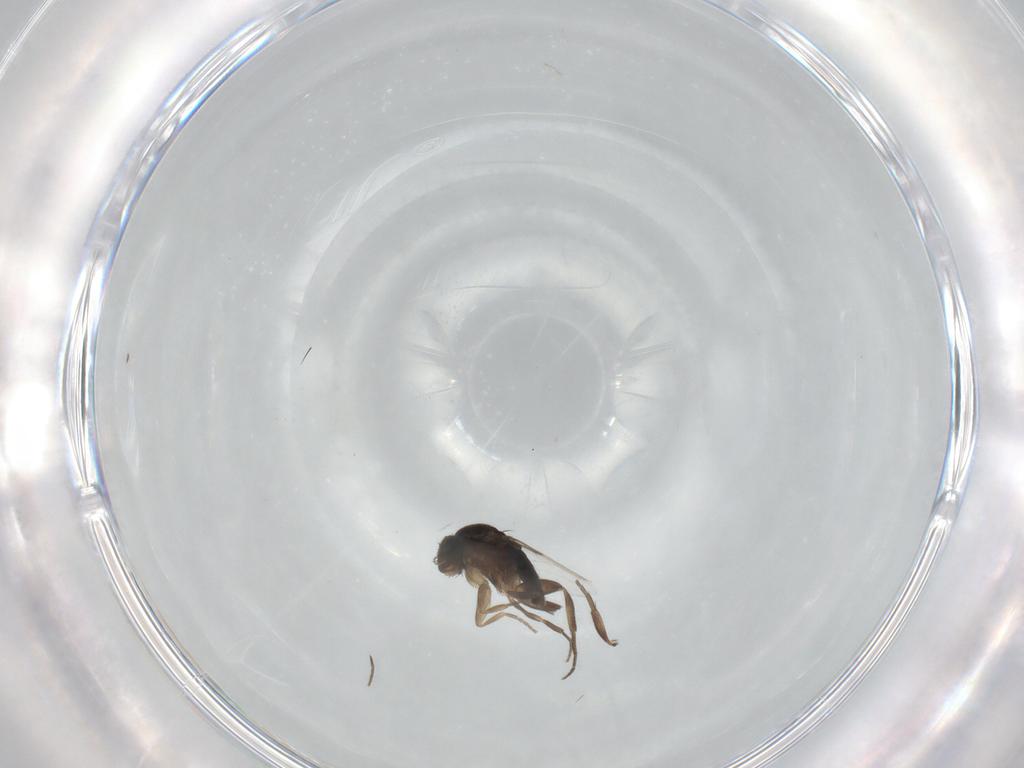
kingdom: Animalia
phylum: Arthropoda
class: Insecta
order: Diptera
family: Phoridae
